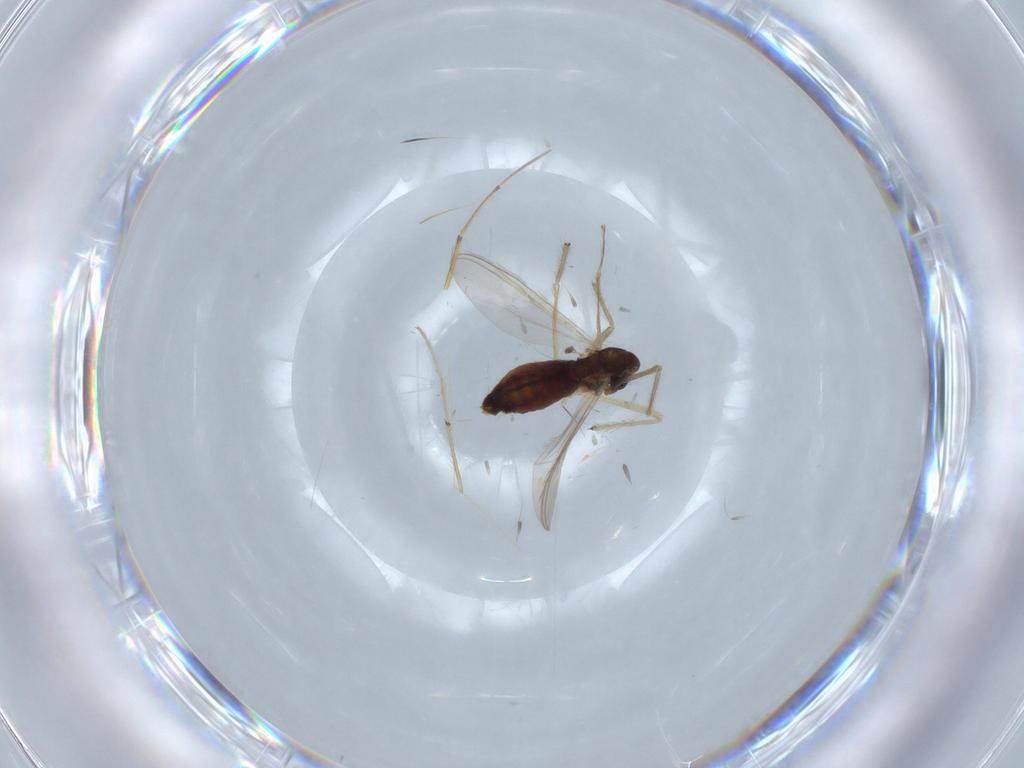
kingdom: Animalia
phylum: Arthropoda
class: Insecta
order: Diptera
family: Chironomidae
